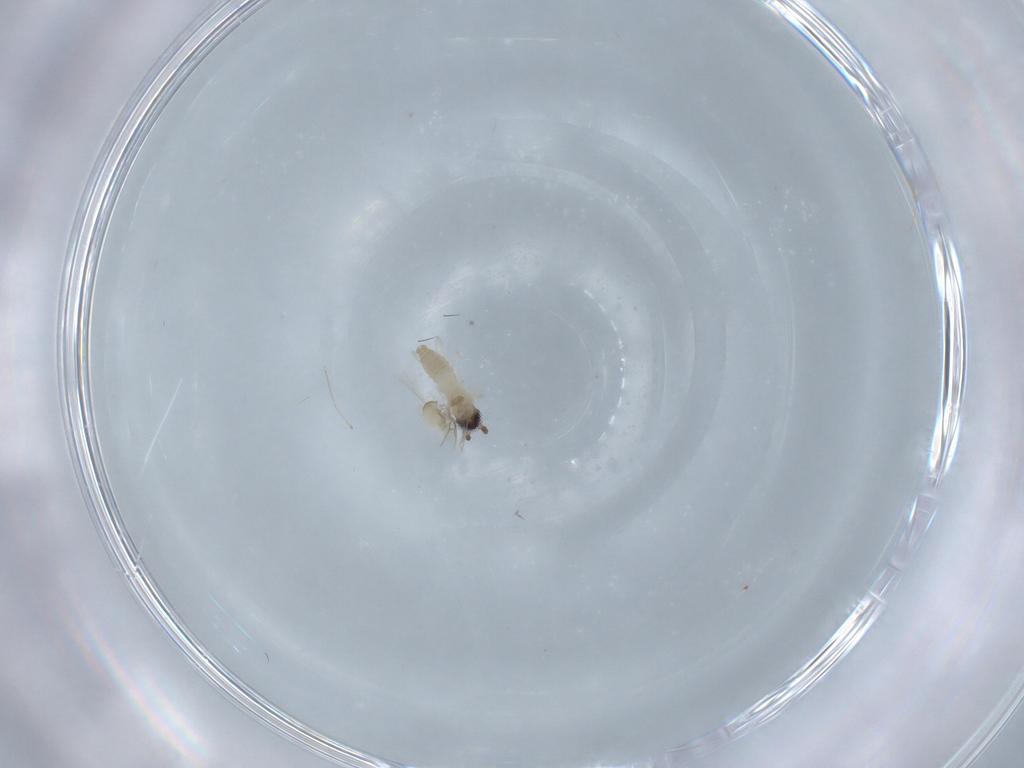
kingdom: Animalia
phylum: Arthropoda
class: Insecta
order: Diptera
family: Cecidomyiidae
